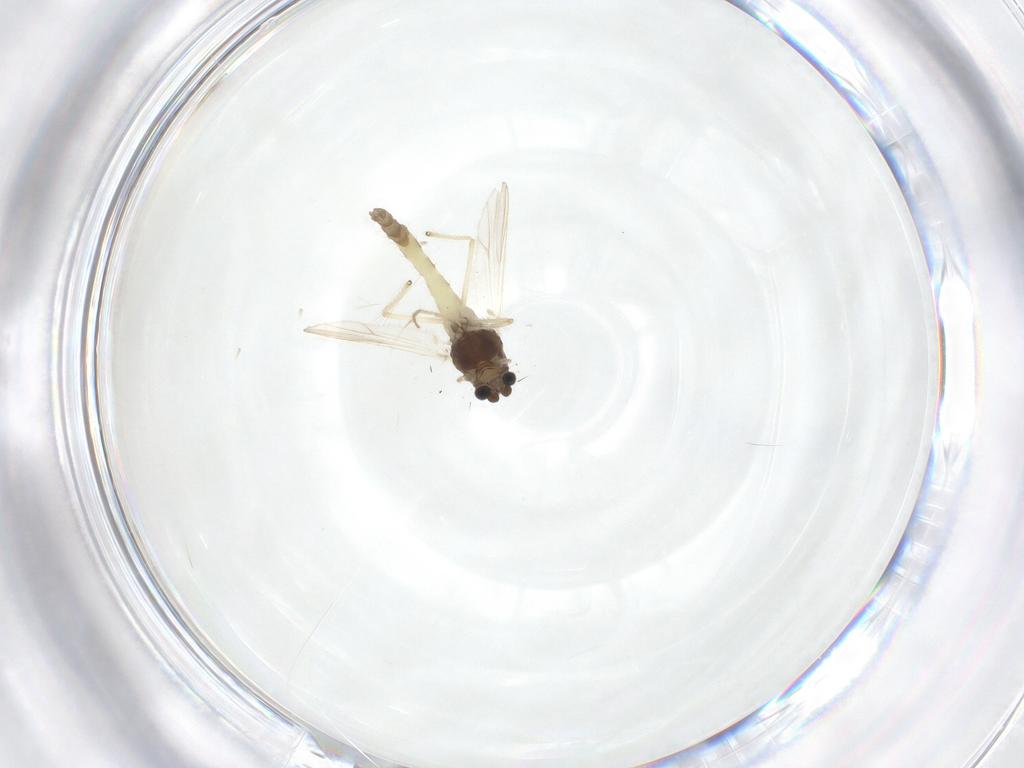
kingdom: Animalia
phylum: Arthropoda
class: Insecta
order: Diptera
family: Chironomidae
